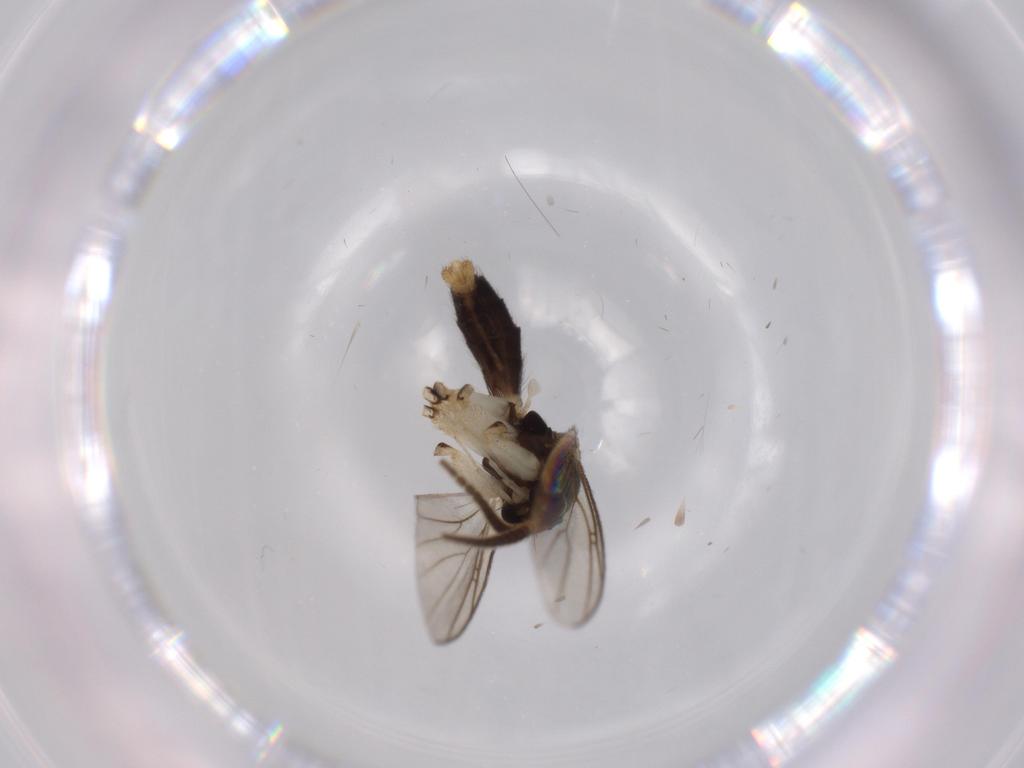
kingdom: Animalia
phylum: Arthropoda
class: Insecta
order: Diptera
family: Mycetophilidae
